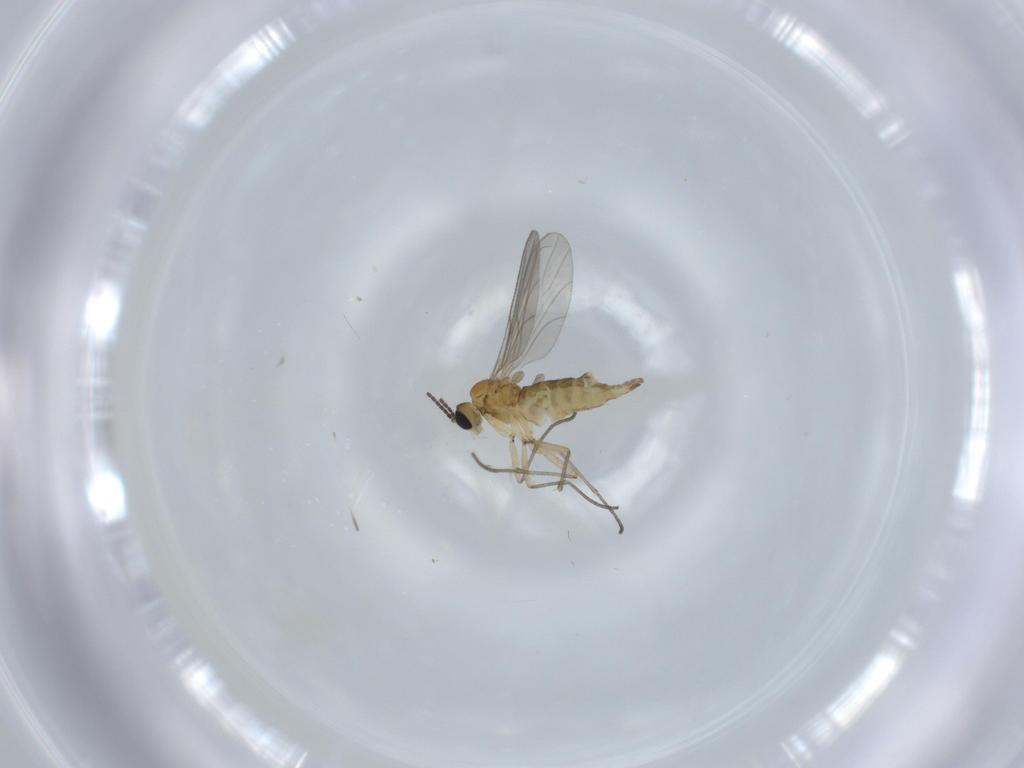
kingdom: Animalia
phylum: Arthropoda
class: Insecta
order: Diptera
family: Sciaridae
